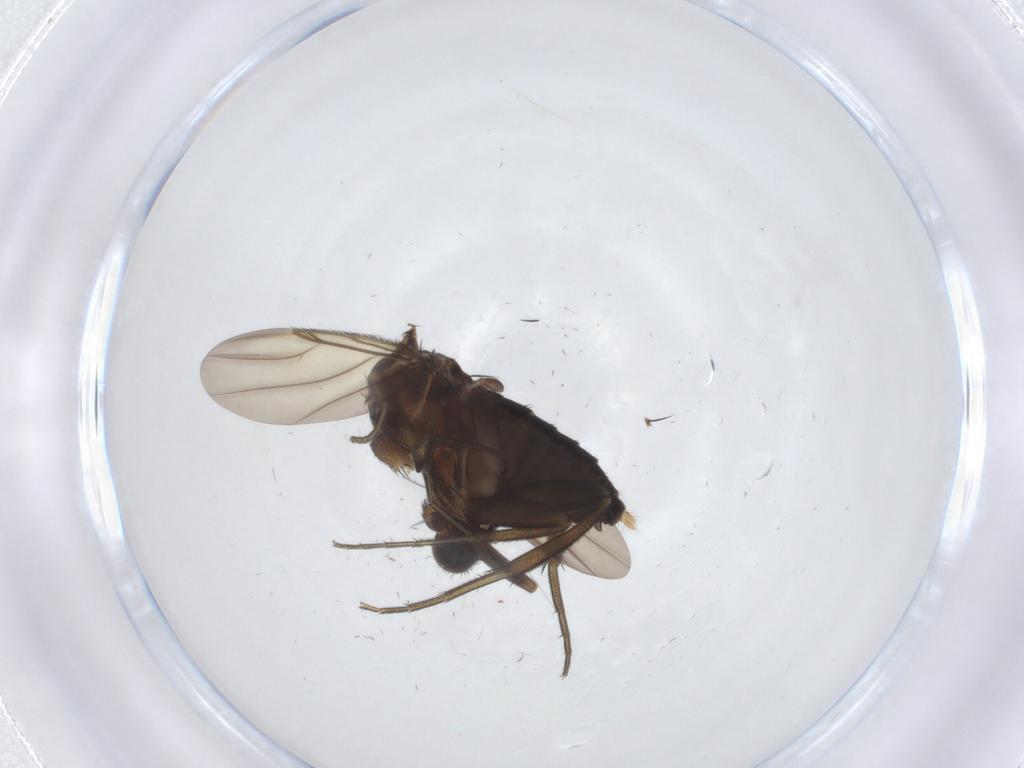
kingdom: Animalia
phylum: Arthropoda
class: Insecta
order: Diptera
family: Phoridae
